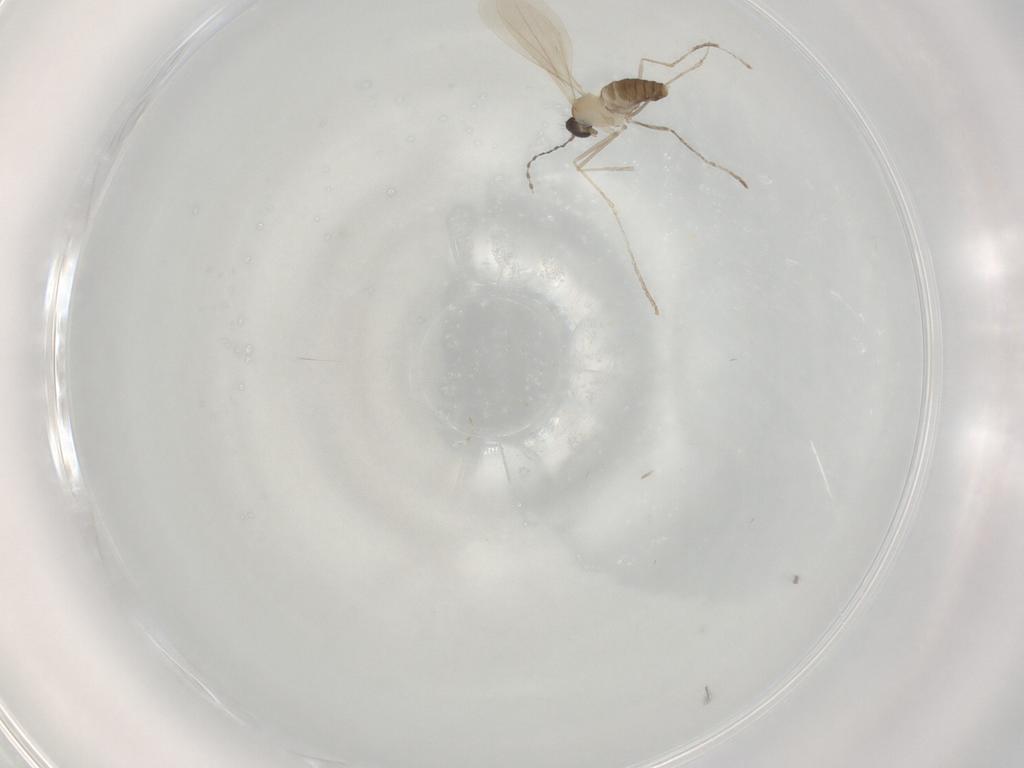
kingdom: Animalia
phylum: Arthropoda
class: Insecta
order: Diptera
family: Cecidomyiidae
